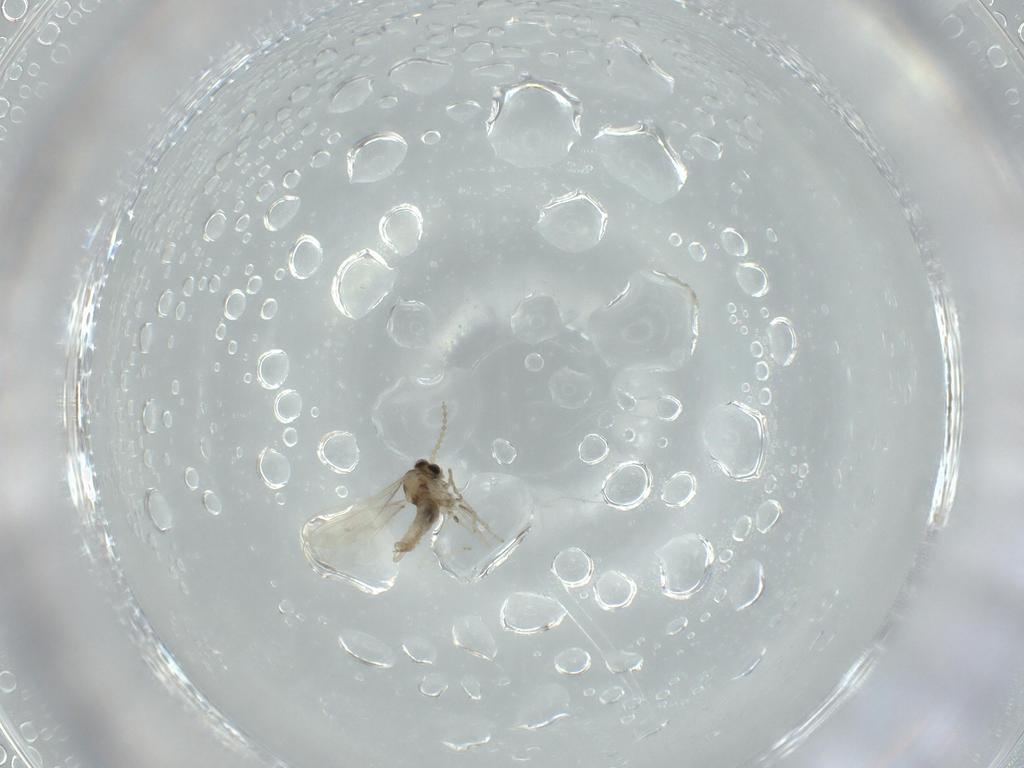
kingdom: Animalia
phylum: Arthropoda
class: Insecta
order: Diptera
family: Cecidomyiidae
